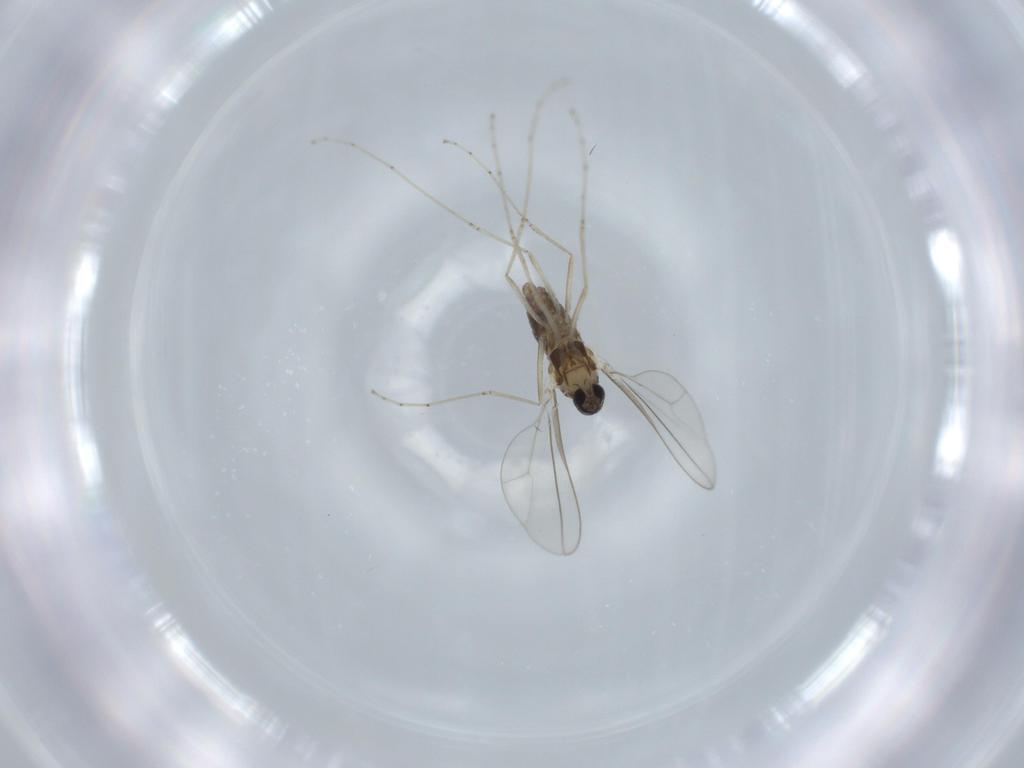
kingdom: Animalia
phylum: Arthropoda
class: Insecta
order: Diptera
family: Cecidomyiidae
